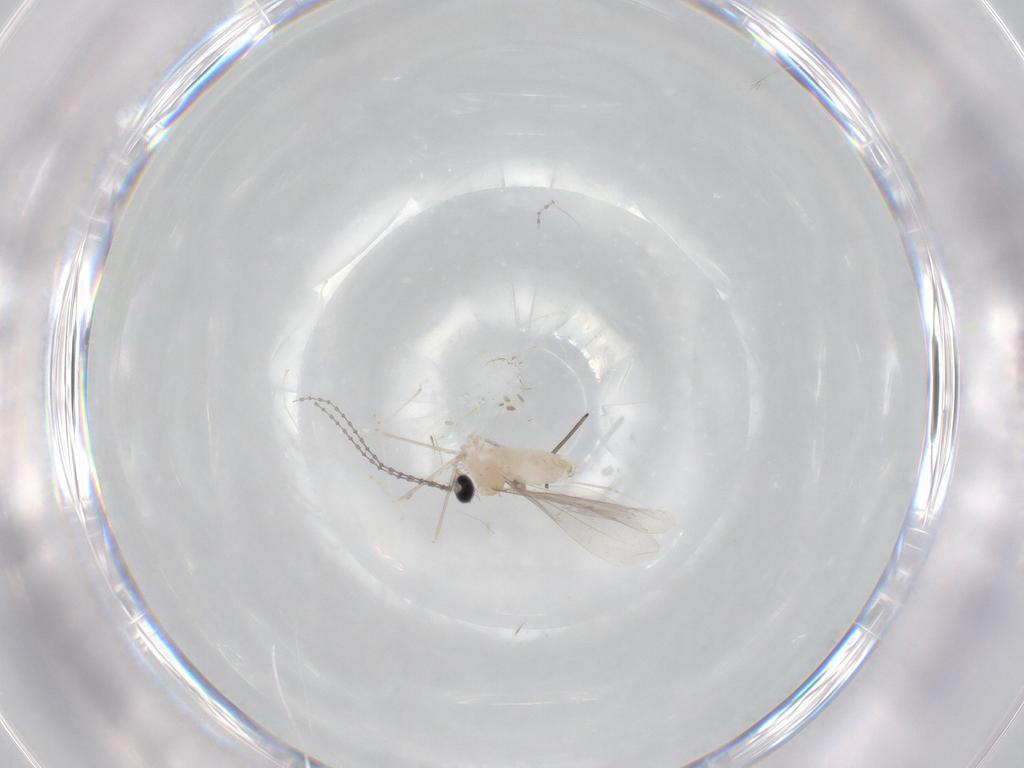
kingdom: Animalia
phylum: Arthropoda
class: Insecta
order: Diptera
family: Cecidomyiidae
